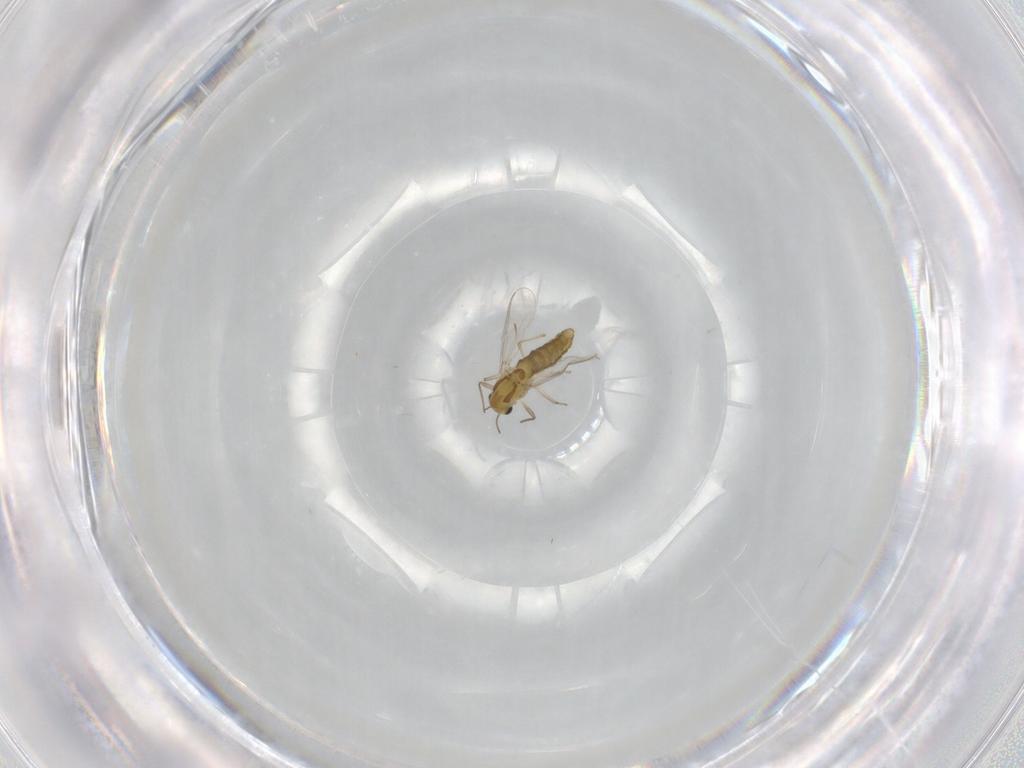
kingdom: Animalia
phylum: Arthropoda
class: Insecta
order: Diptera
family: Chironomidae
